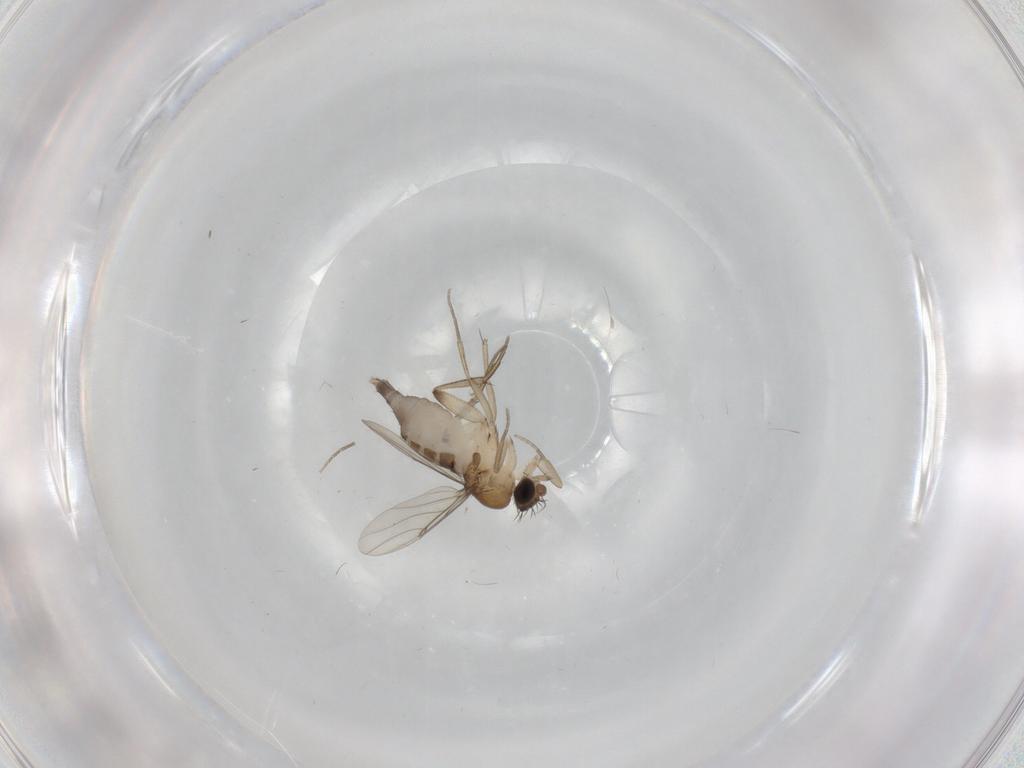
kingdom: Animalia
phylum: Arthropoda
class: Insecta
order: Diptera
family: Phoridae
